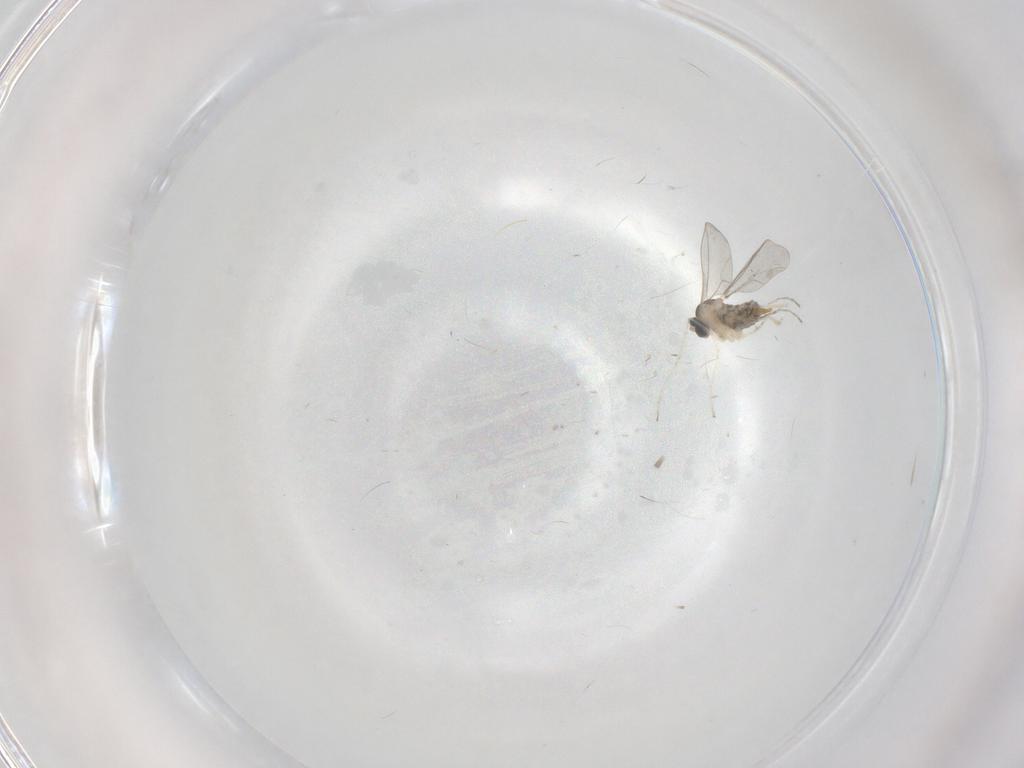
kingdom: Animalia
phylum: Arthropoda
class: Insecta
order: Diptera
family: Cecidomyiidae
